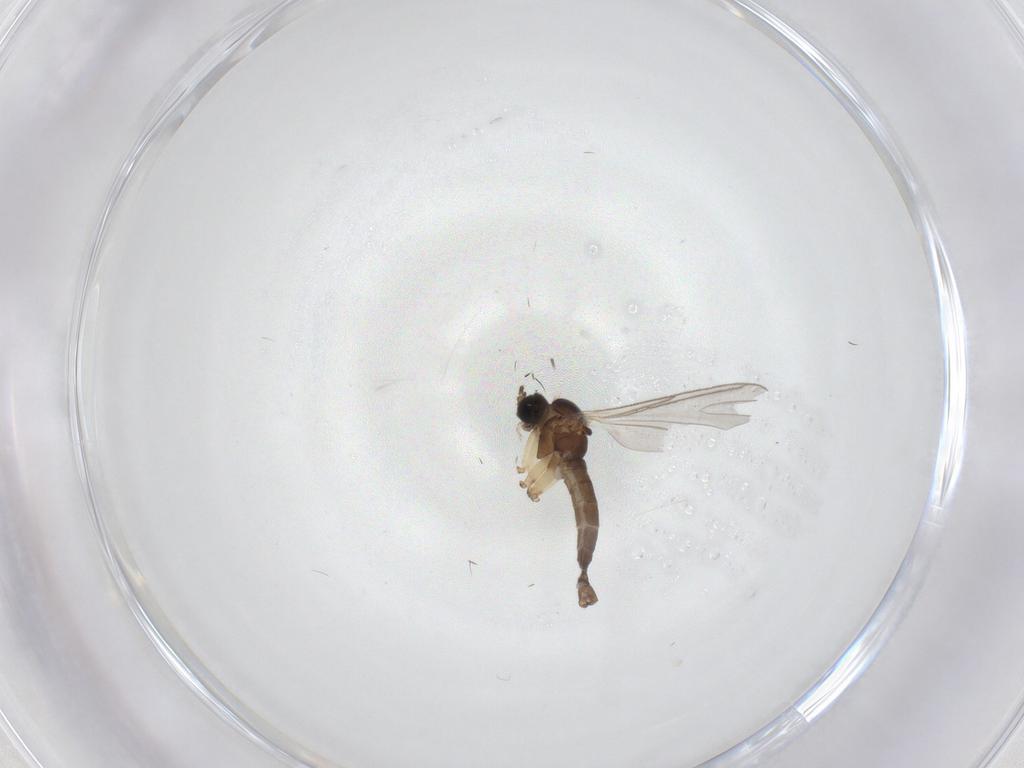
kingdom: Animalia
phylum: Arthropoda
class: Insecta
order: Diptera
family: Sciaridae
